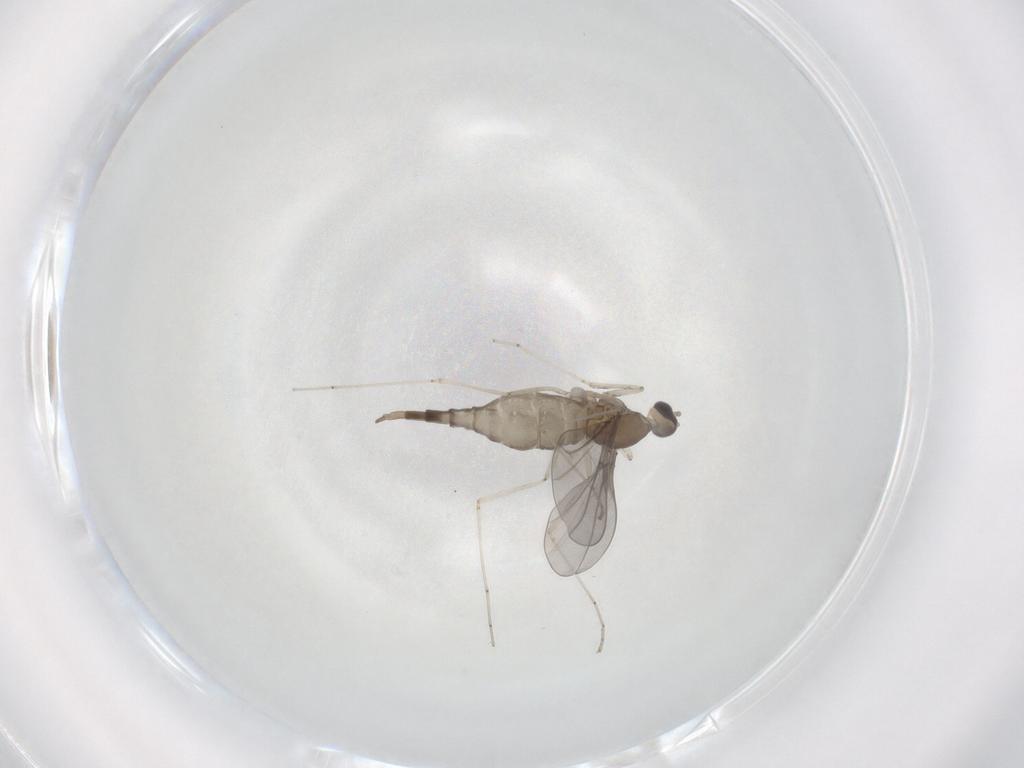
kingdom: Animalia
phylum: Arthropoda
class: Insecta
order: Diptera
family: Cecidomyiidae
